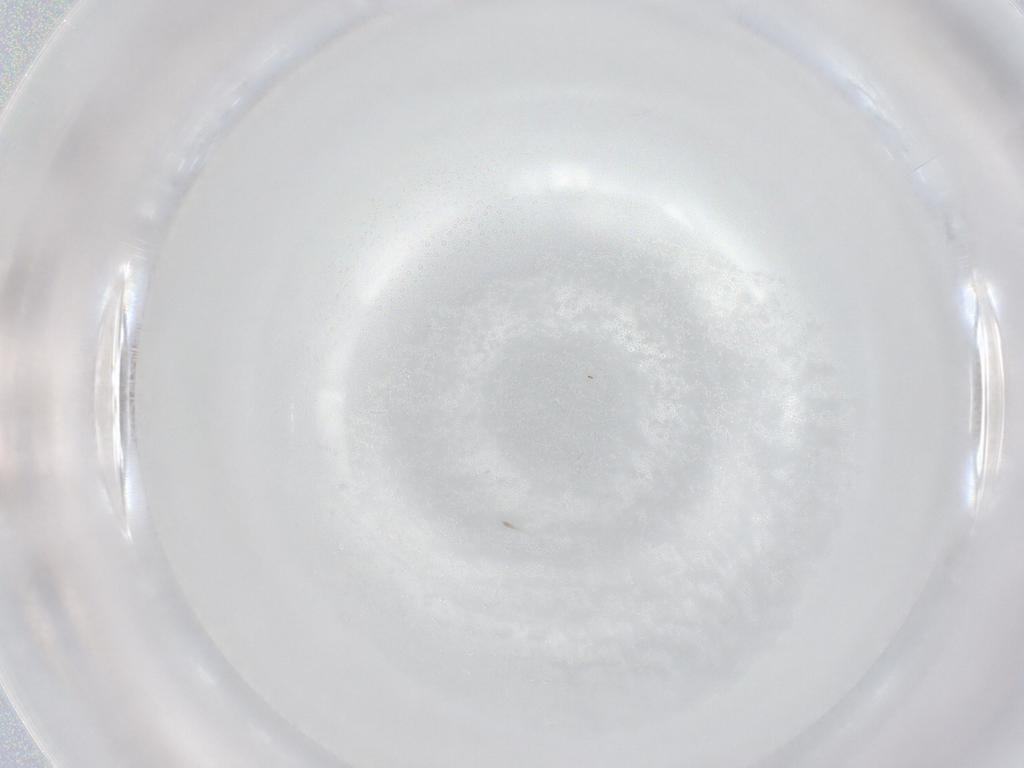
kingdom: Animalia
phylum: Arthropoda
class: Insecta
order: Diptera
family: Cecidomyiidae
